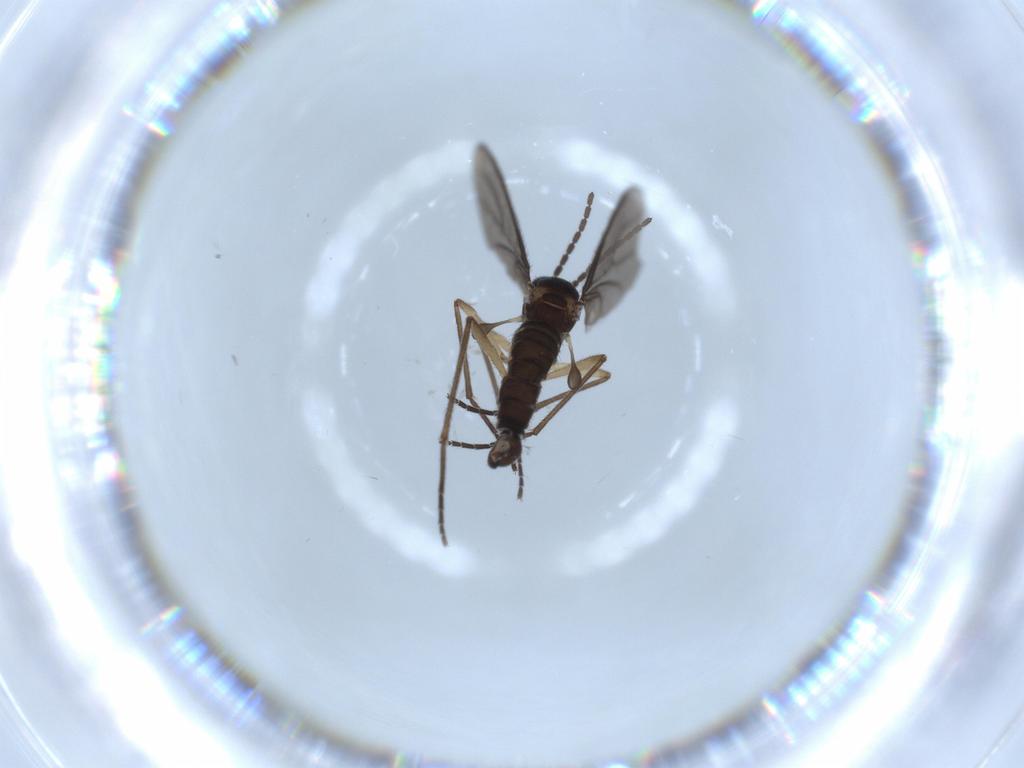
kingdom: Animalia
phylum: Arthropoda
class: Insecta
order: Diptera
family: Sciaridae
